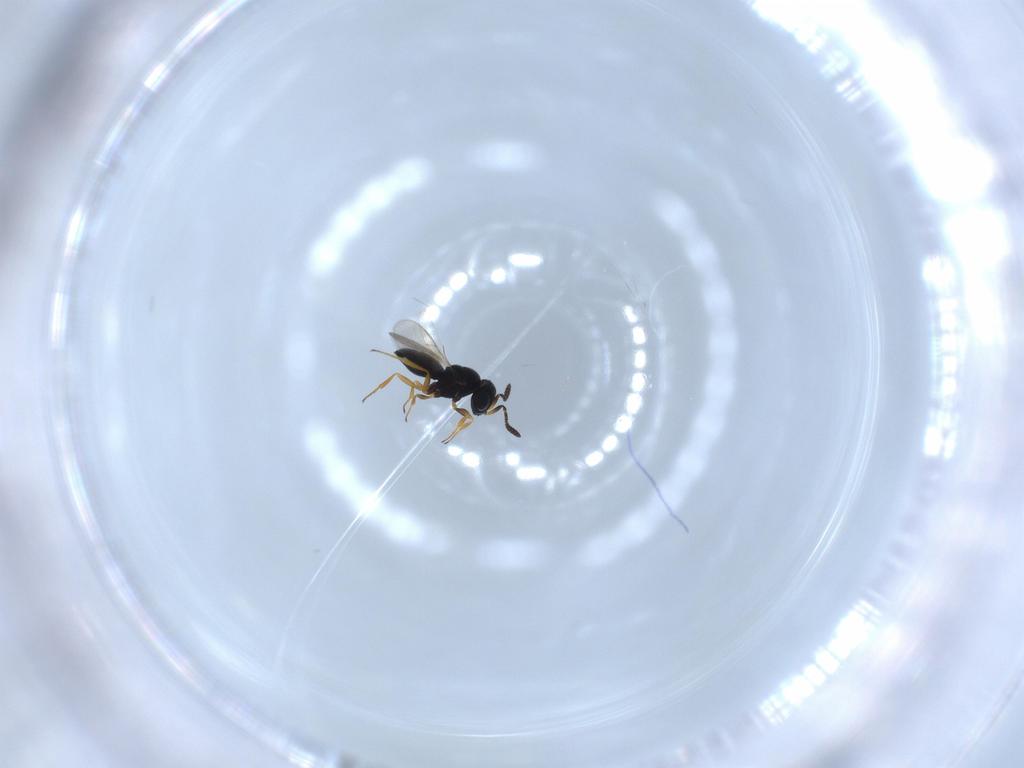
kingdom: Animalia
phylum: Arthropoda
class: Insecta
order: Hymenoptera
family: Scelionidae
